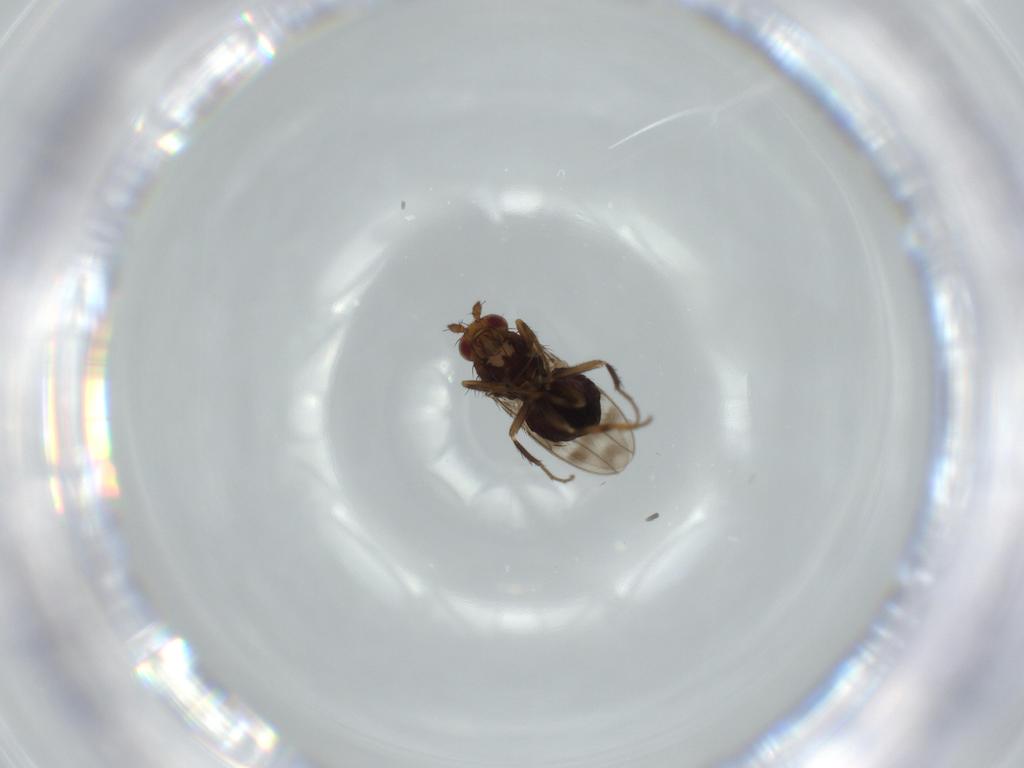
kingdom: Animalia
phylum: Arthropoda
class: Insecta
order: Diptera
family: Sphaeroceridae
